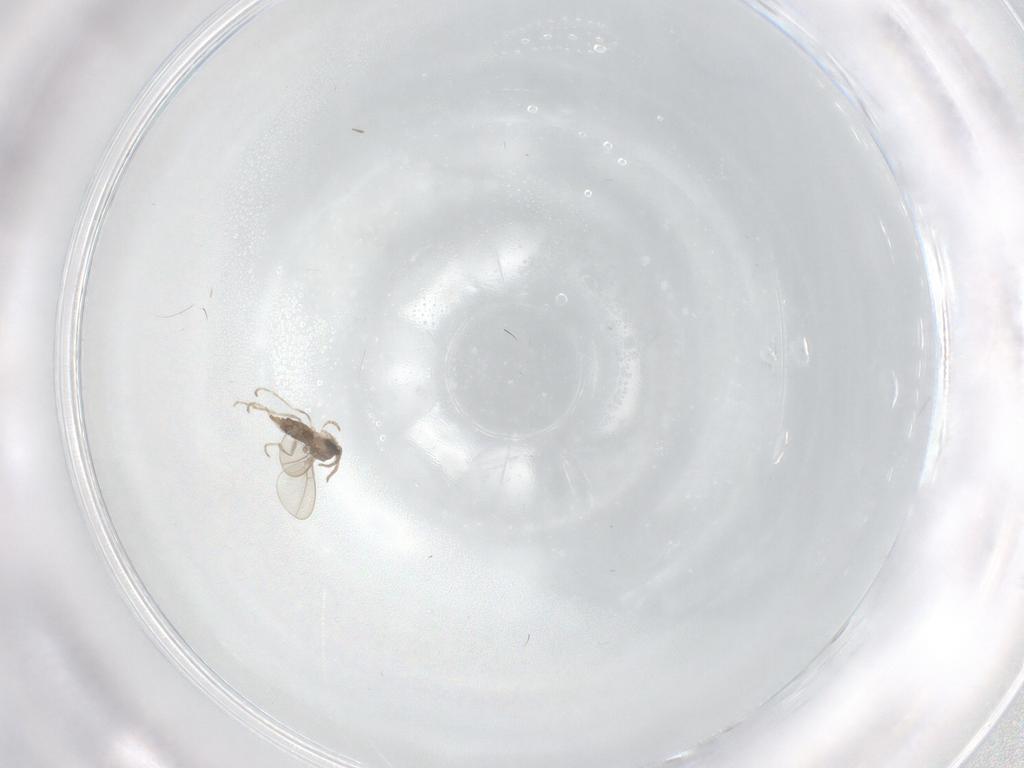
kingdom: Animalia
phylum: Arthropoda
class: Insecta
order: Diptera
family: Cecidomyiidae
